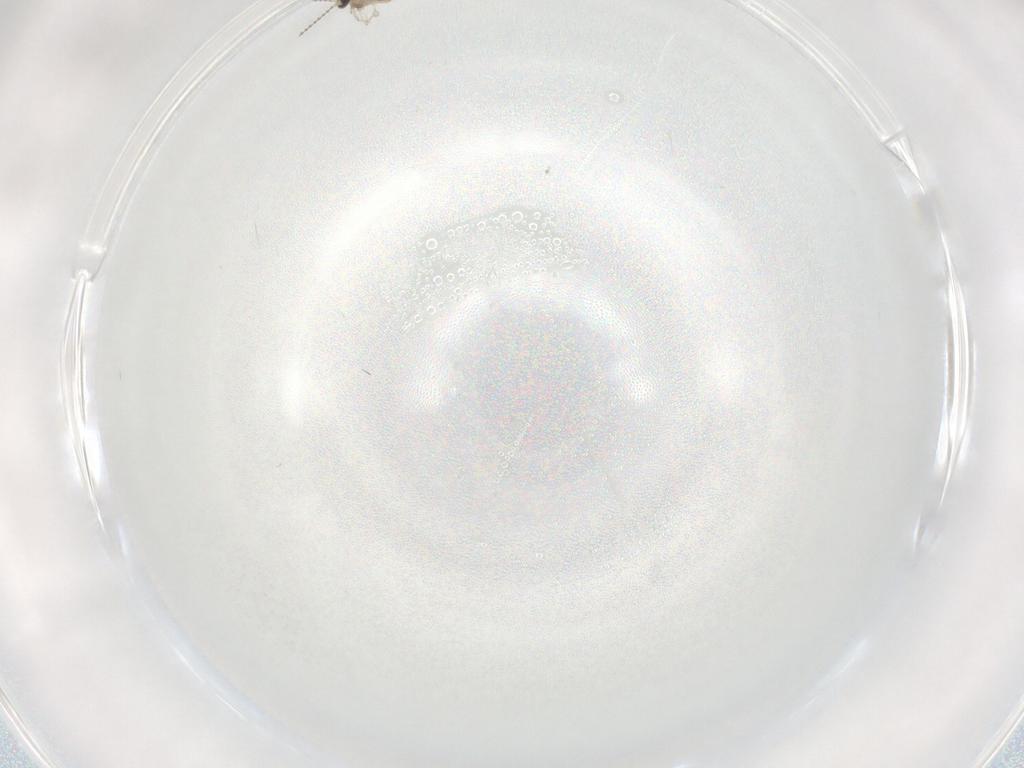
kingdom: Animalia
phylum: Arthropoda
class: Insecta
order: Diptera
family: Cecidomyiidae
